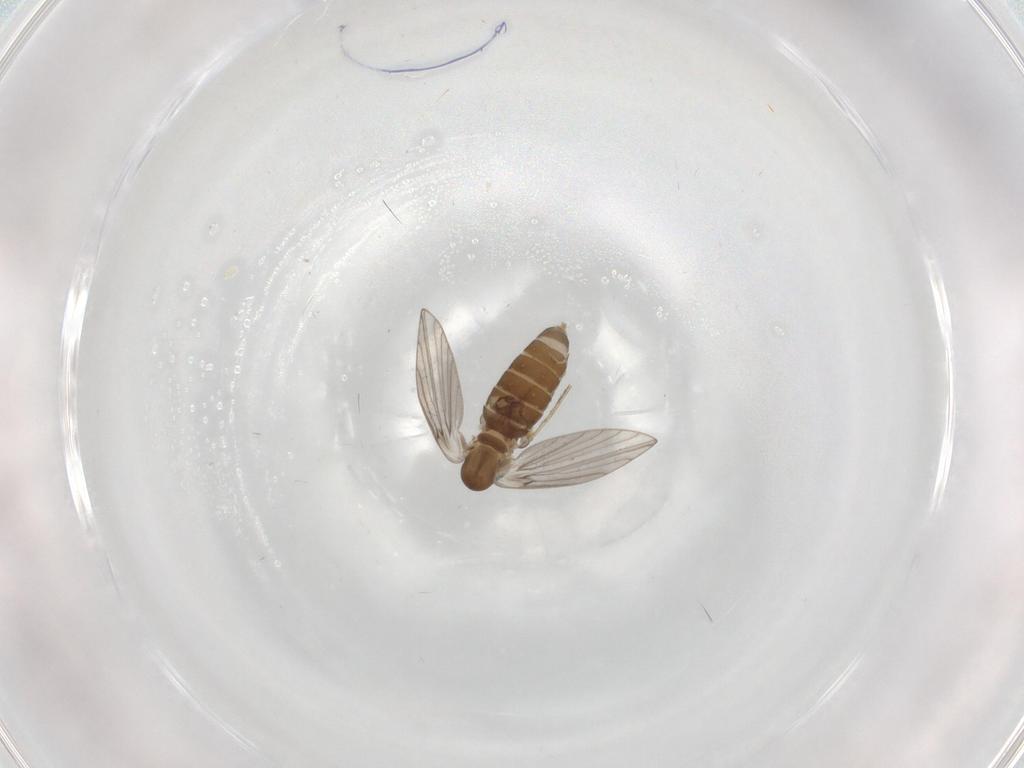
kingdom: Animalia
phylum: Arthropoda
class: Insecta
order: Diptera
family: Psychodidae
